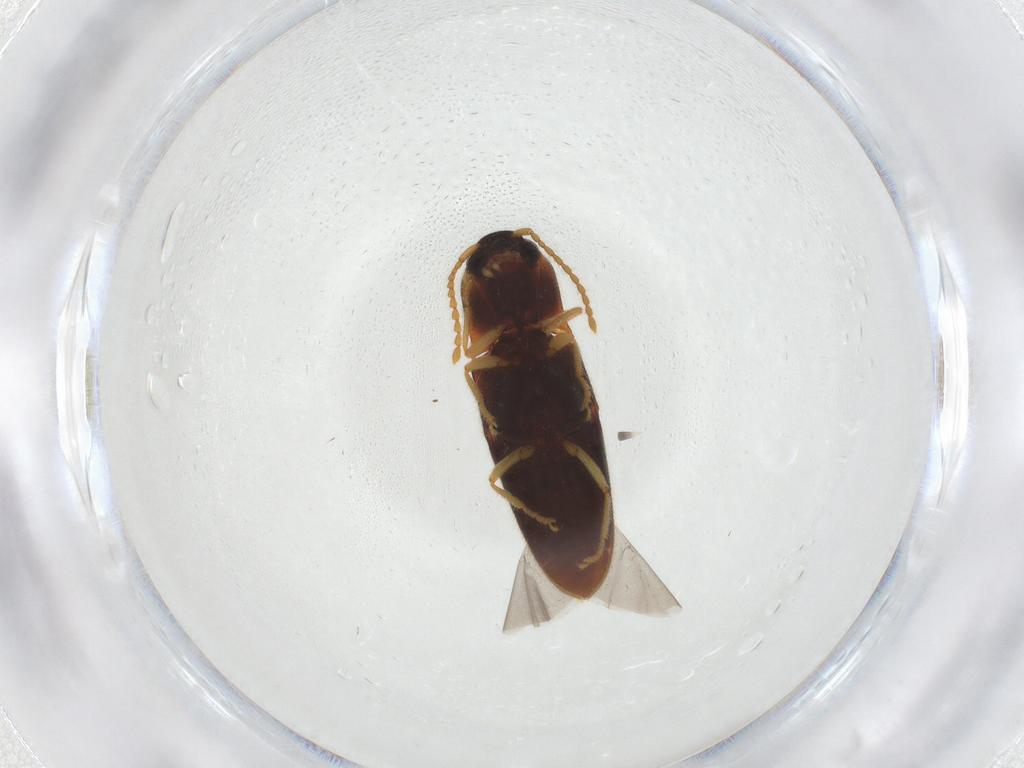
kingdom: Animalia
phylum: Arthropoda
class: Insecta
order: Coleoptera
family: Elateridae
